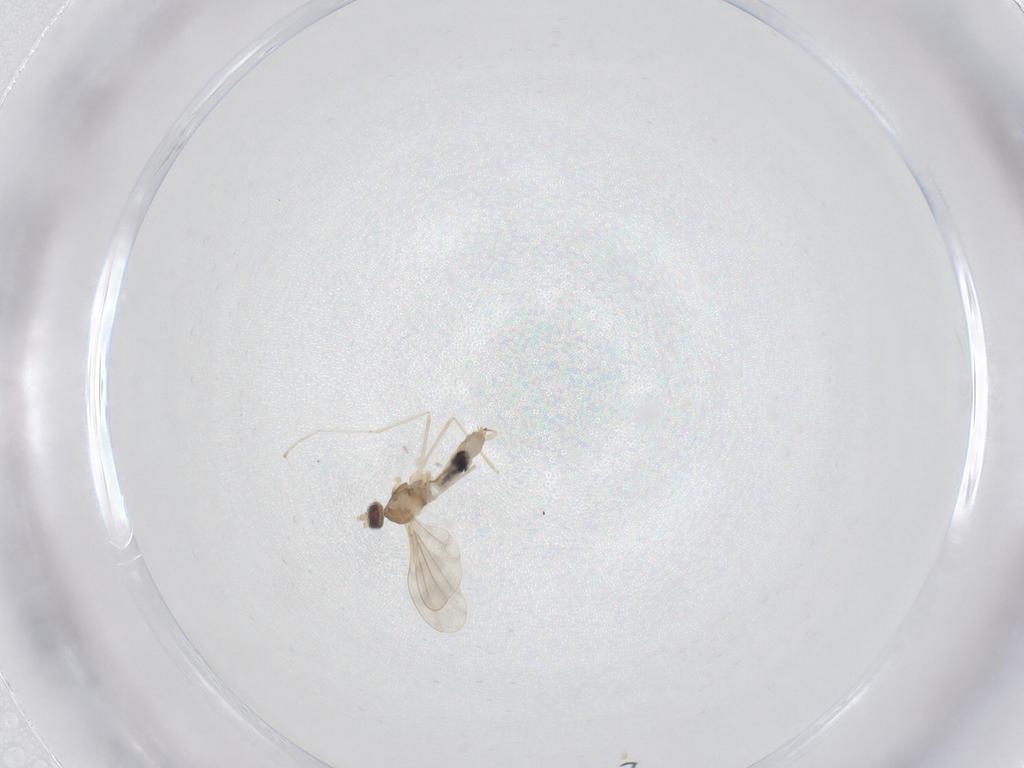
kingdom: Animalia
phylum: Arthropoda
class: Insecta
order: Diptera
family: Cecidomyiidae
